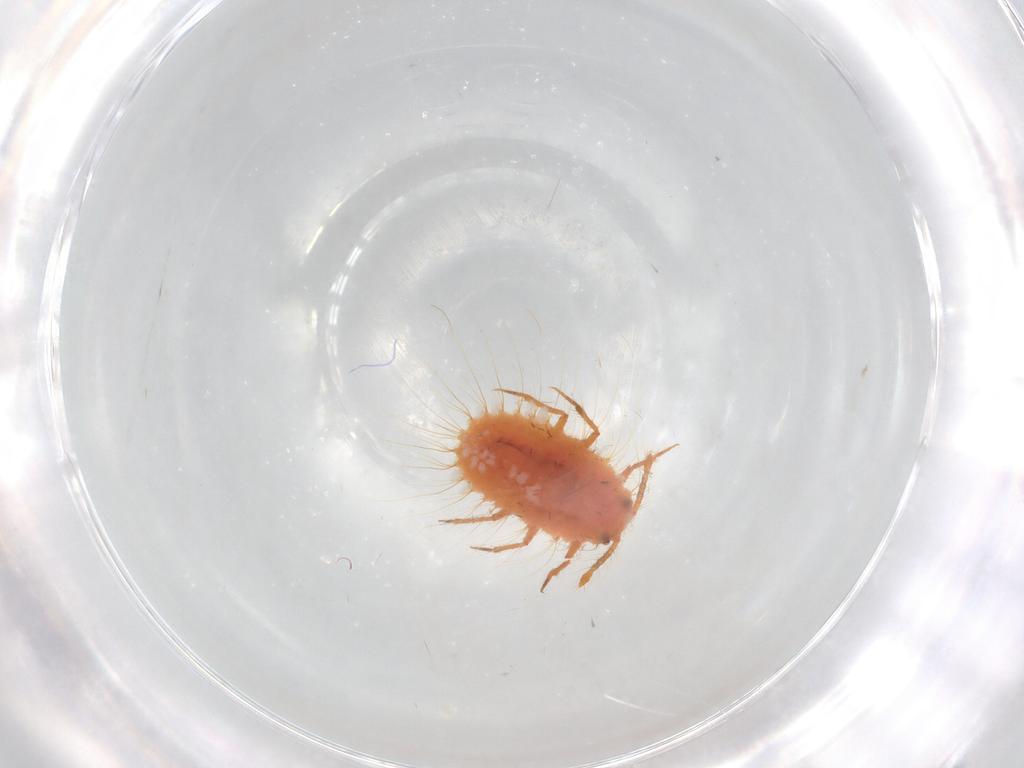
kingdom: Animalia
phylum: Arthropoda
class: Insecta
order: Hemiptera
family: Coccoidea_incertae_sedis
